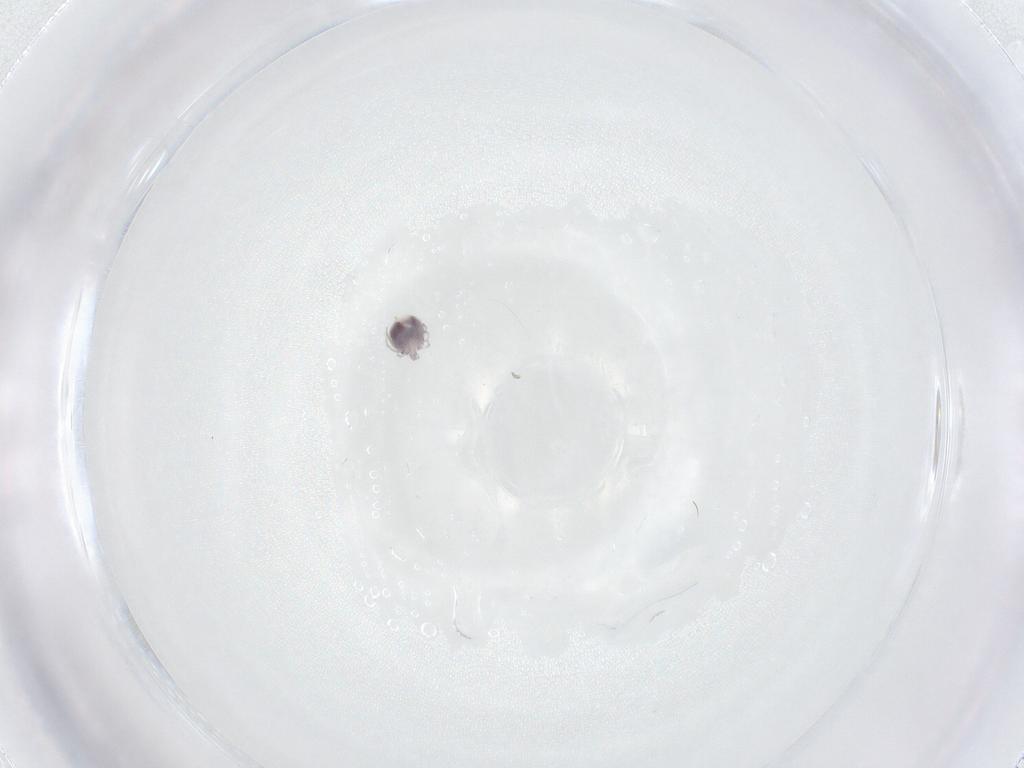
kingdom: Animalia
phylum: Arthropoda
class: Arachnida
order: Trombidiformes
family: Pionidae
